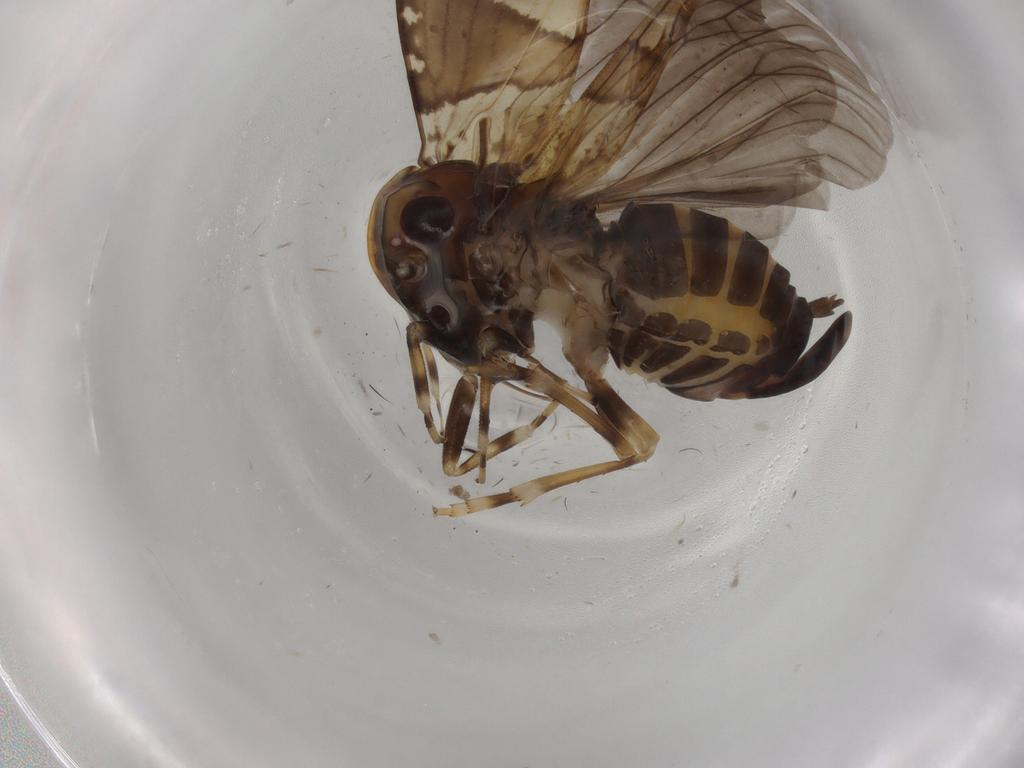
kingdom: Animalia
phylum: Arthropoda
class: Insecta
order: Hemiptera
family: Cixiidae
